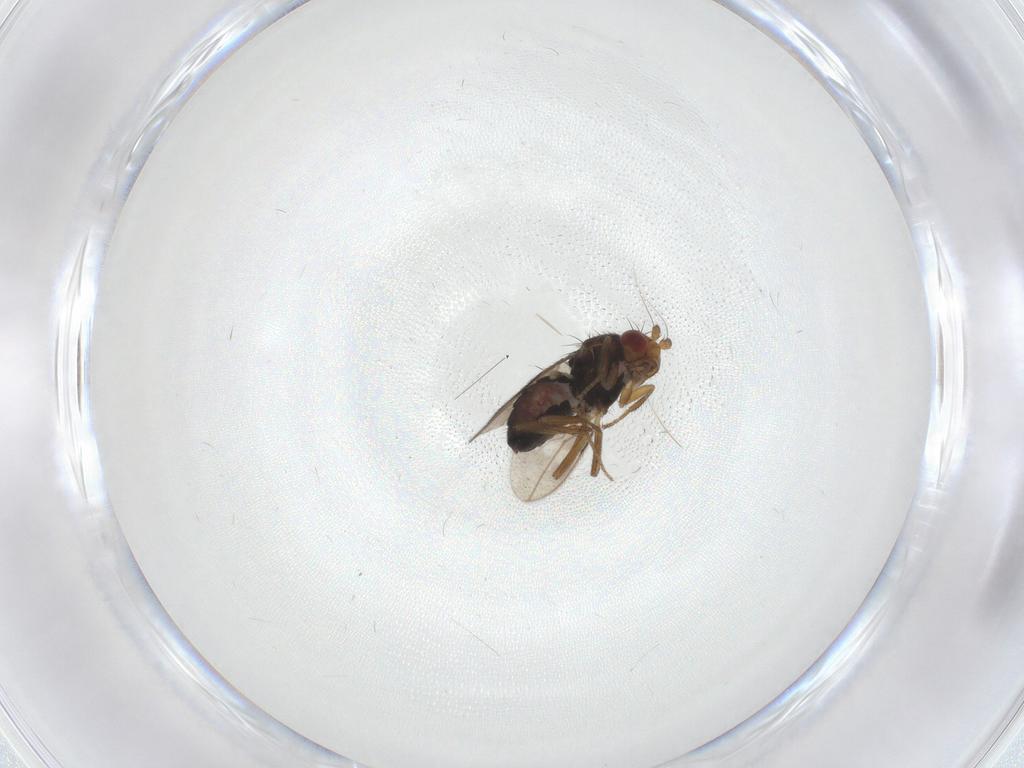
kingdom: Animalia
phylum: Arthropoda
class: Insecta
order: Diptera
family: Sphaeroceridae
